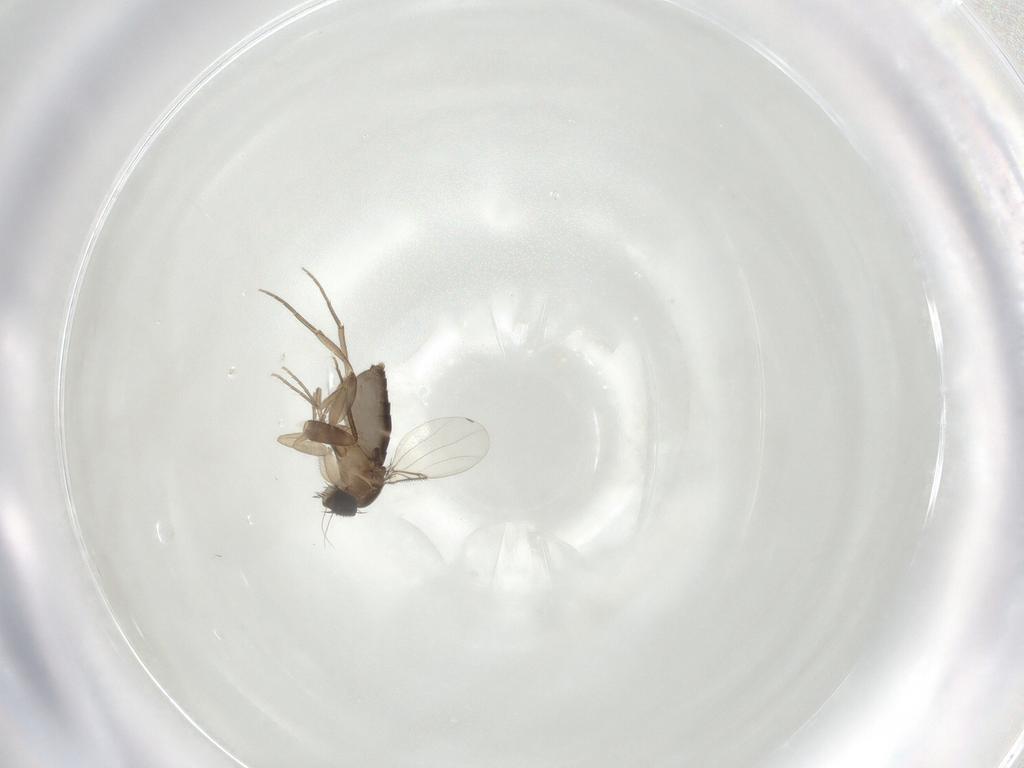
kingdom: Animalia
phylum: Arthropoda
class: Insecta
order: Diptera
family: Phoridae
